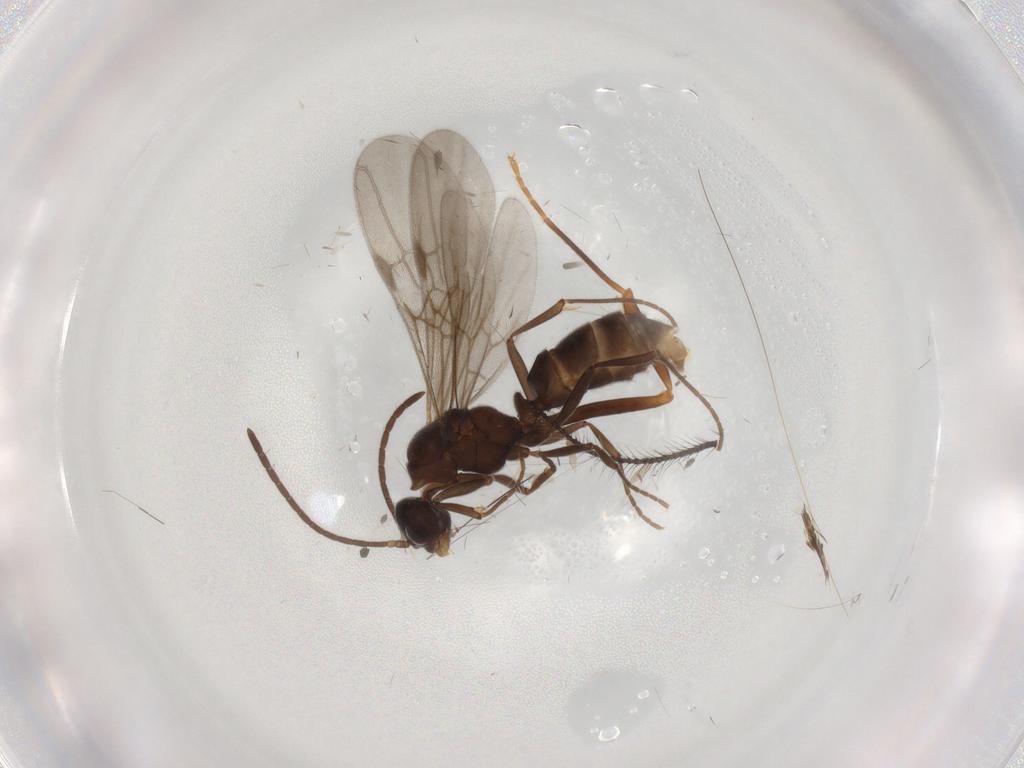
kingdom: Animalia
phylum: Arthropoda
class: Insecta
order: Hymenoptera
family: Formicidae
